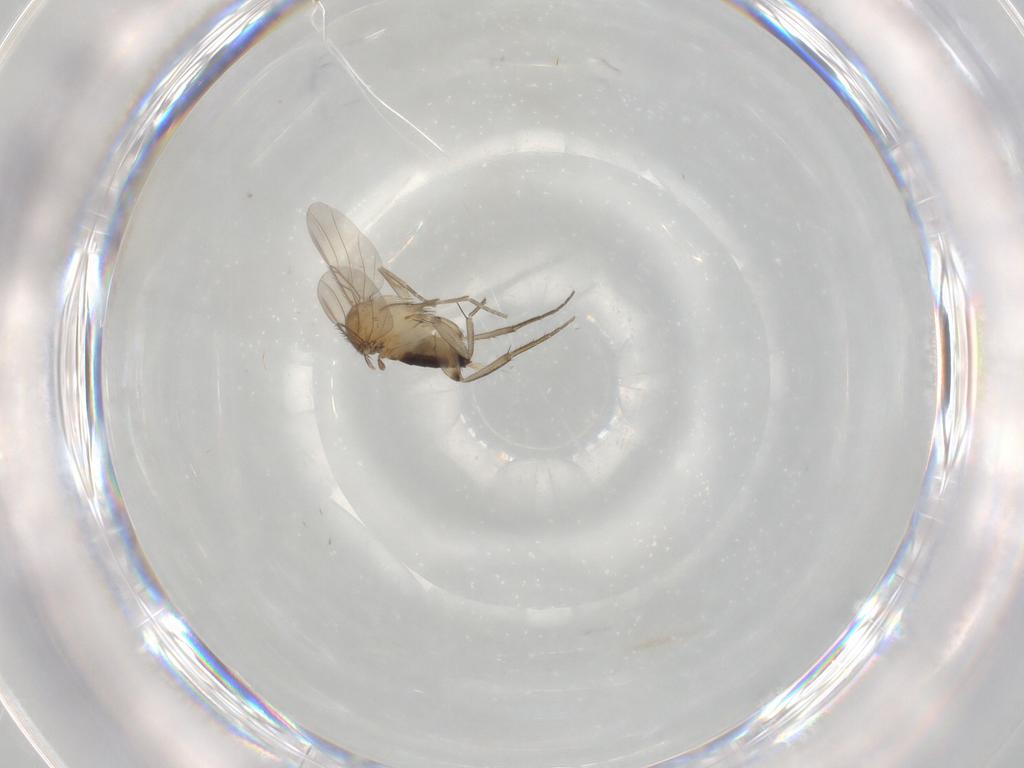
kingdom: Animalia
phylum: Arthropoda
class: Insecta
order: Diptera
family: Phoridae
